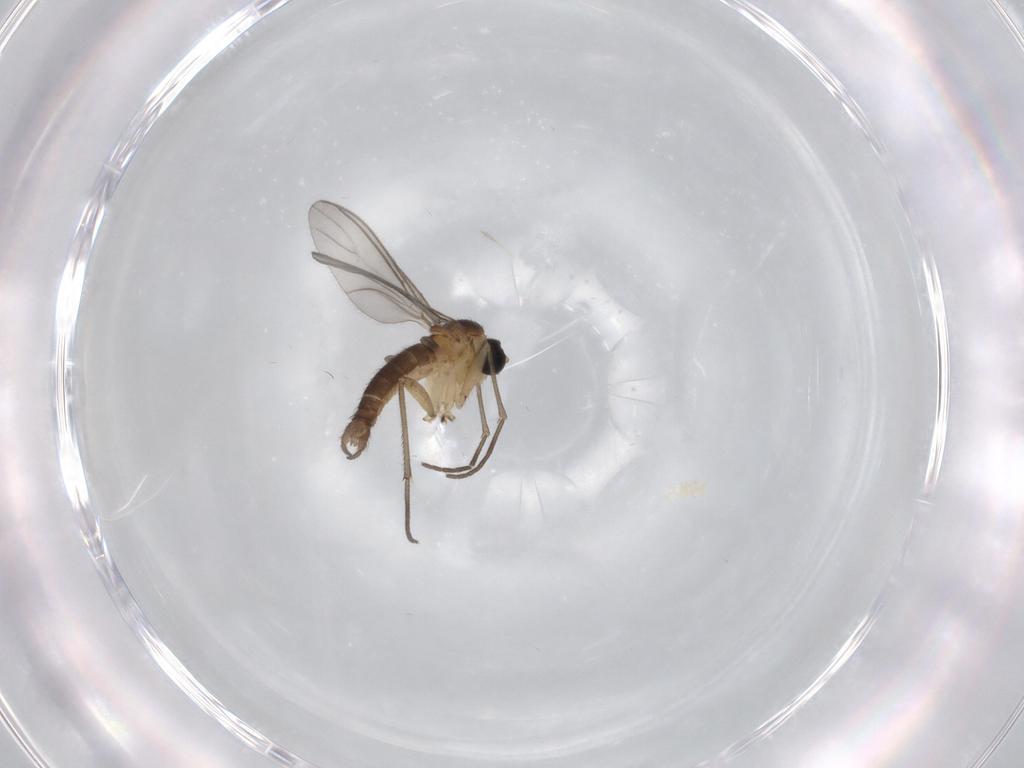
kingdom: Animalia
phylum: Arthropoda
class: Insecta
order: Diptera
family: Sciaridae
